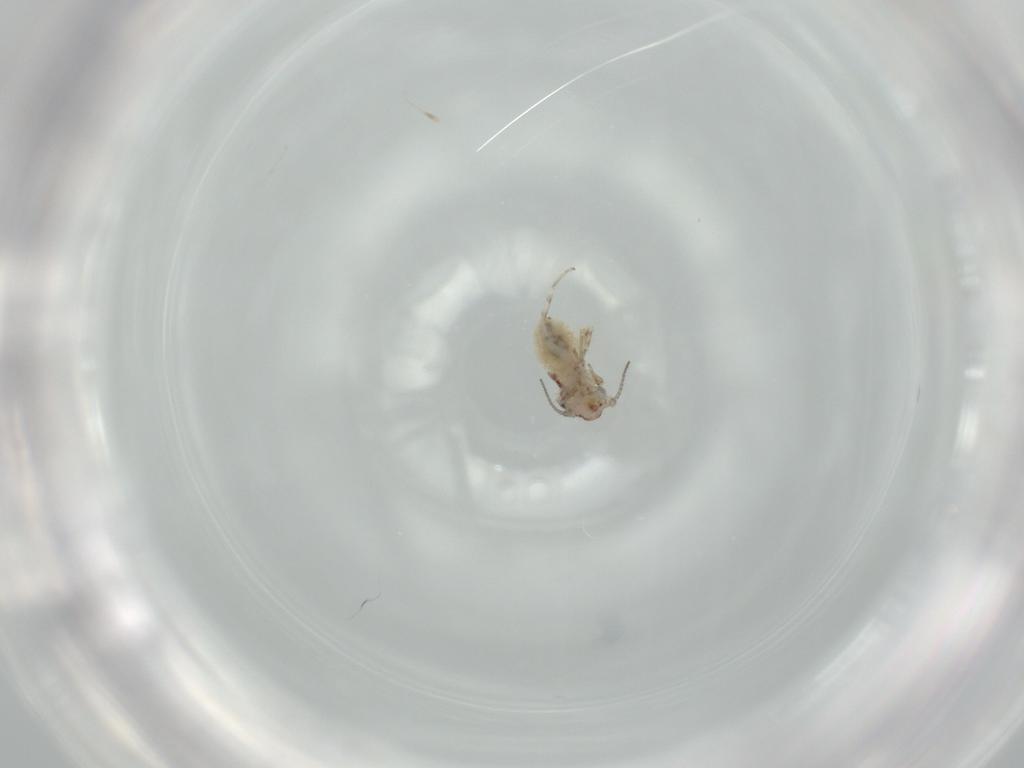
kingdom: Animalia
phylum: Arthropoda
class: Insecta
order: Psocodea
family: Lepidopsocidae
